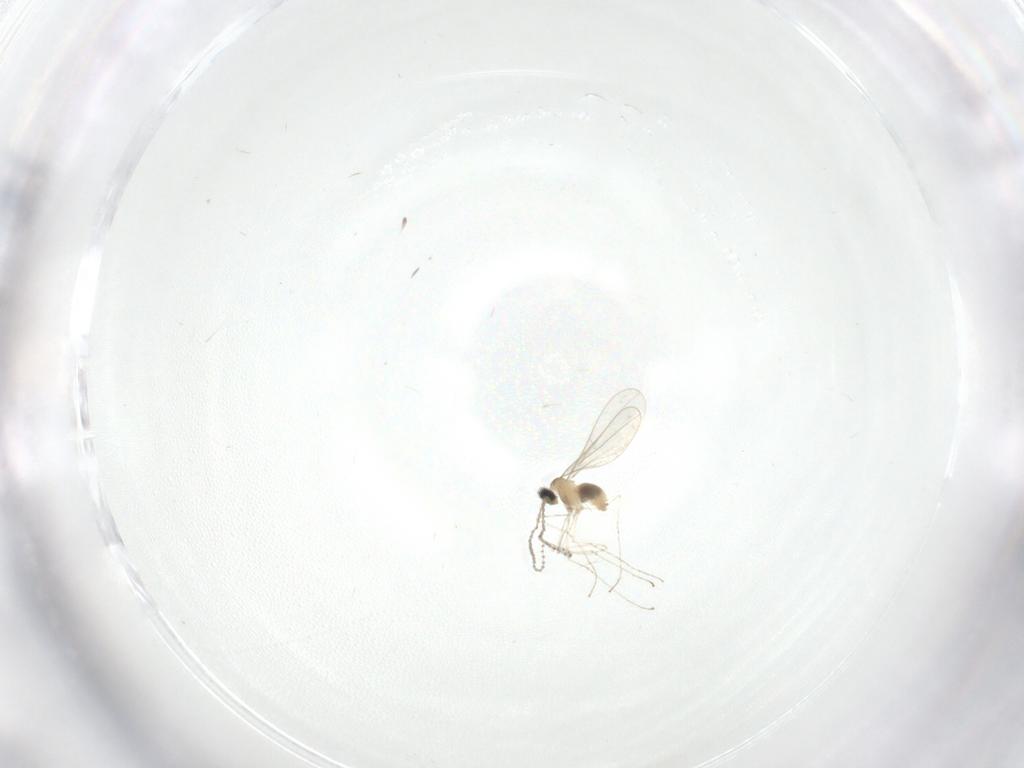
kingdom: Animalia
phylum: Arthropoda
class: Insecta
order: Diptera
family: Cecidomyiidae
